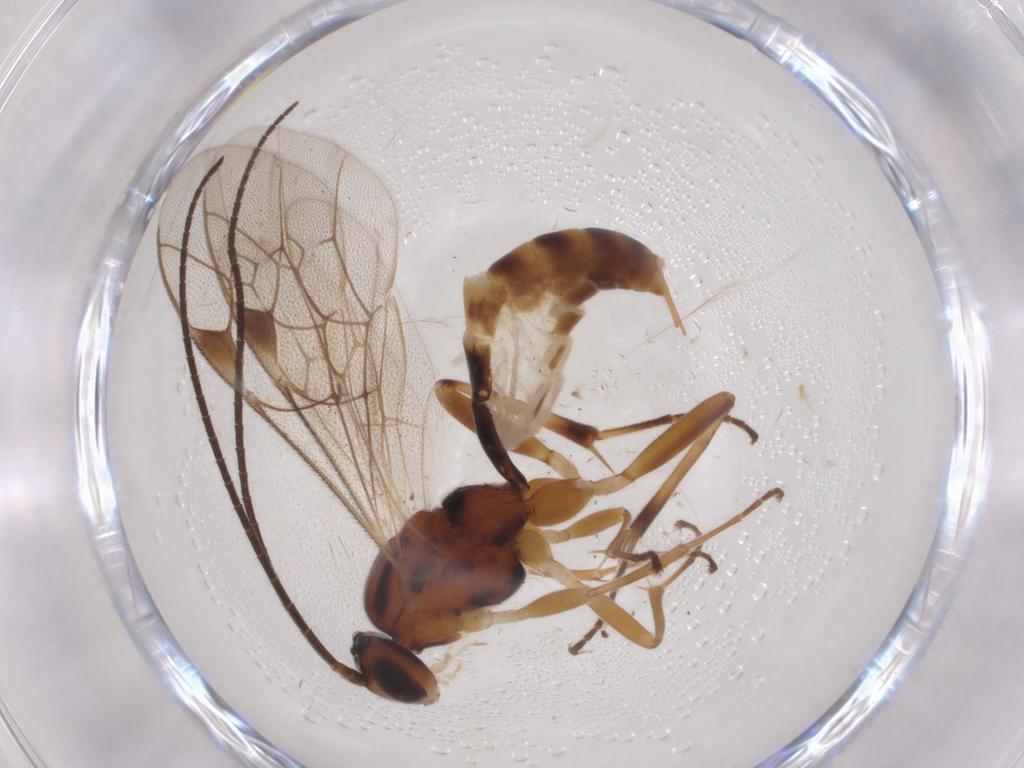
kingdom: Animalia
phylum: Arthropoda
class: Insecta
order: Hymenoptera
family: Ichneumonidae
